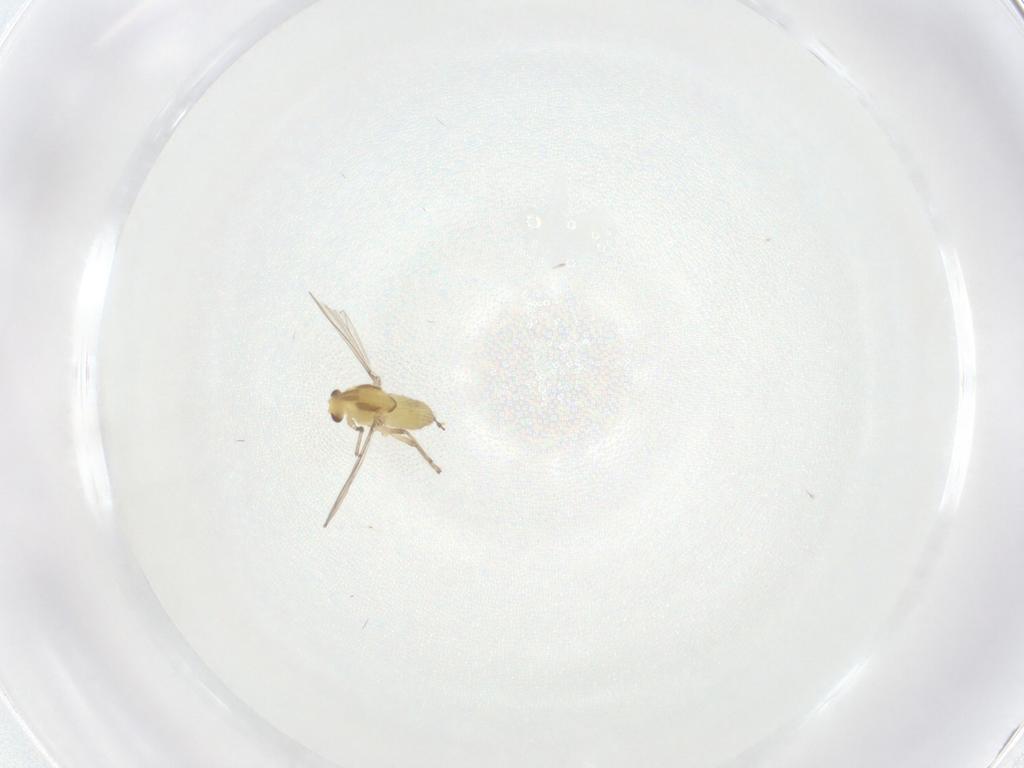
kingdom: Animalia
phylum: Arthropoda
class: Insecta
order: Diptera
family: Chironomidae
